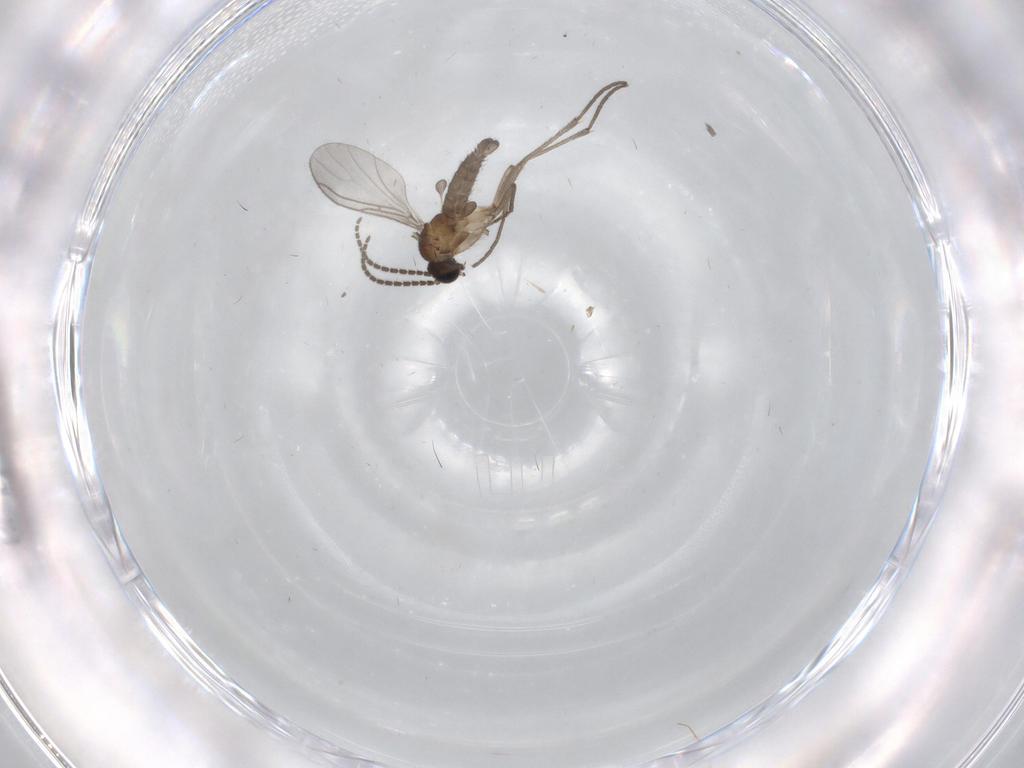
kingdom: Animalia
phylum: Arthropoda
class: Insecta
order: Diptera
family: Sciaridae
